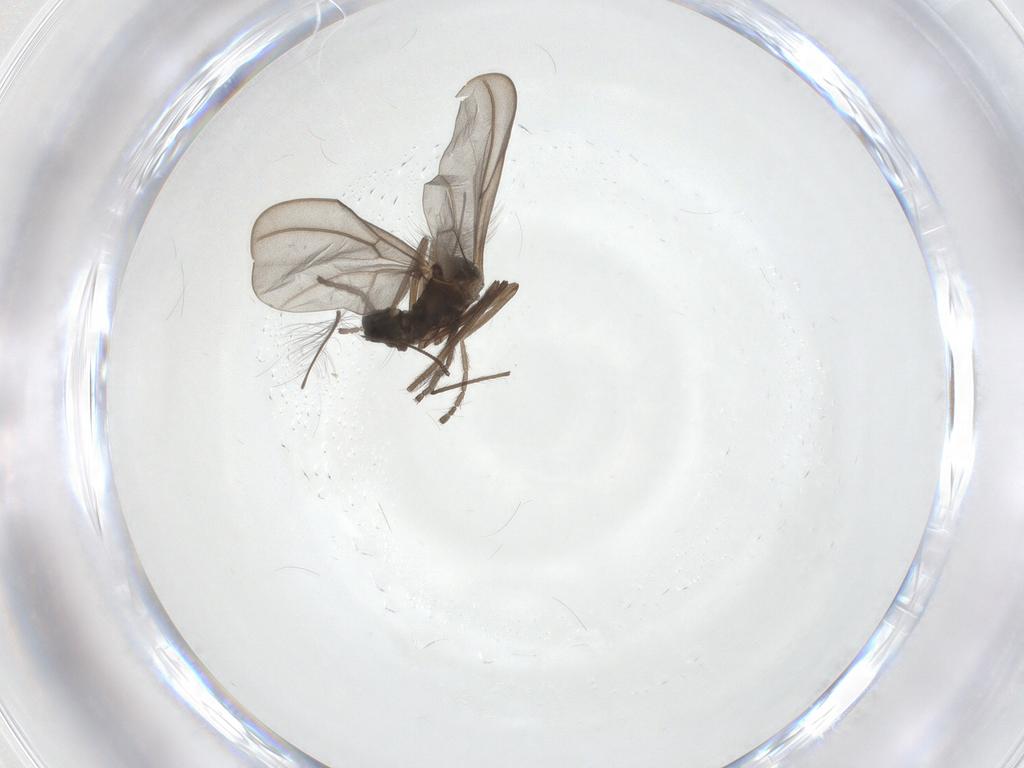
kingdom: Animalia
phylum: Arthropoda
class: Insecta
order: Diptera
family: Cecidomyiidae
